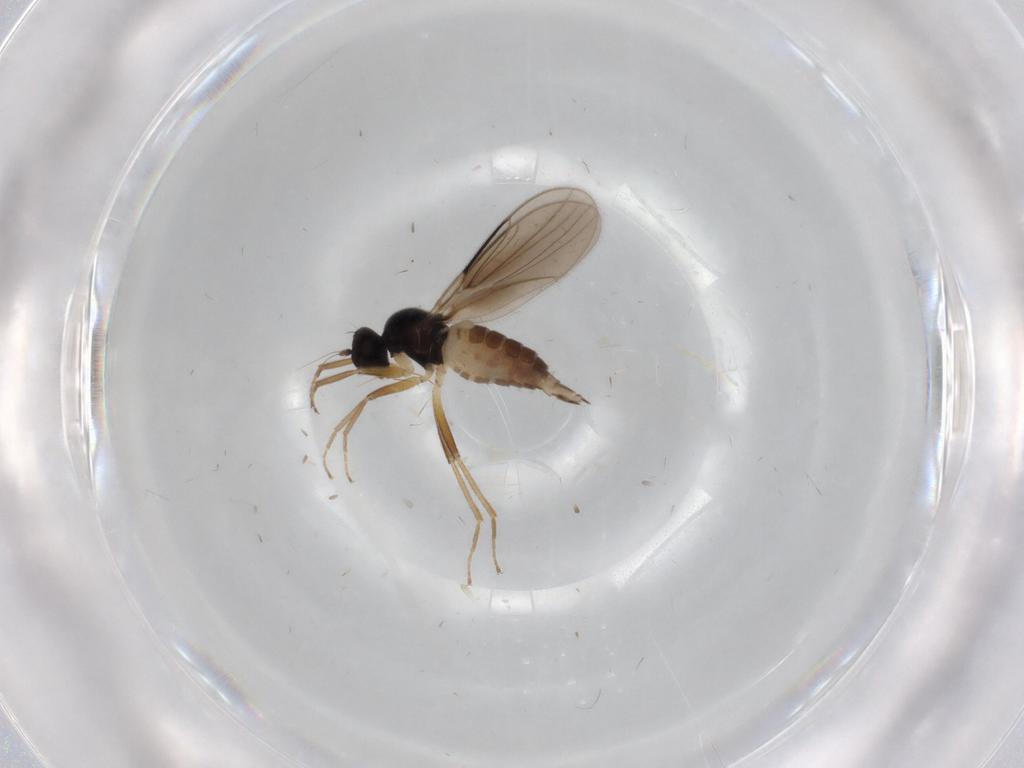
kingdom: Animalia
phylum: Arthropoda
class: Insecta
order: Diptera
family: Hybotidae
